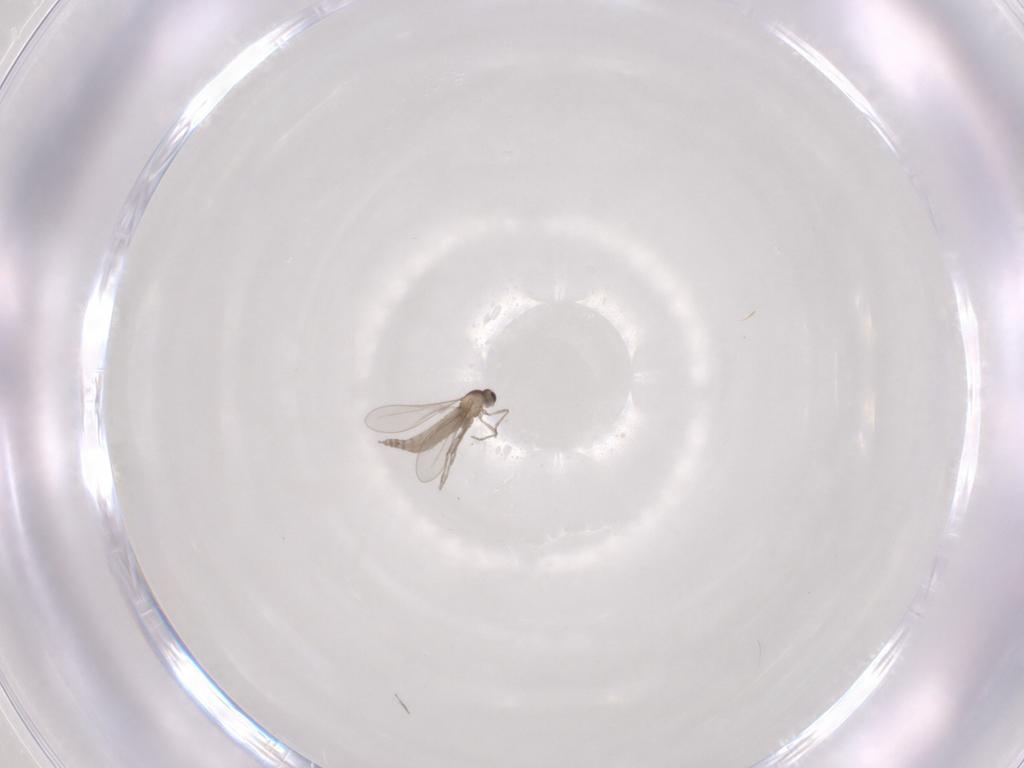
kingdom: Animalia
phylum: Arthropoda
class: Insecta
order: Diptera
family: Cecidomyiidae
